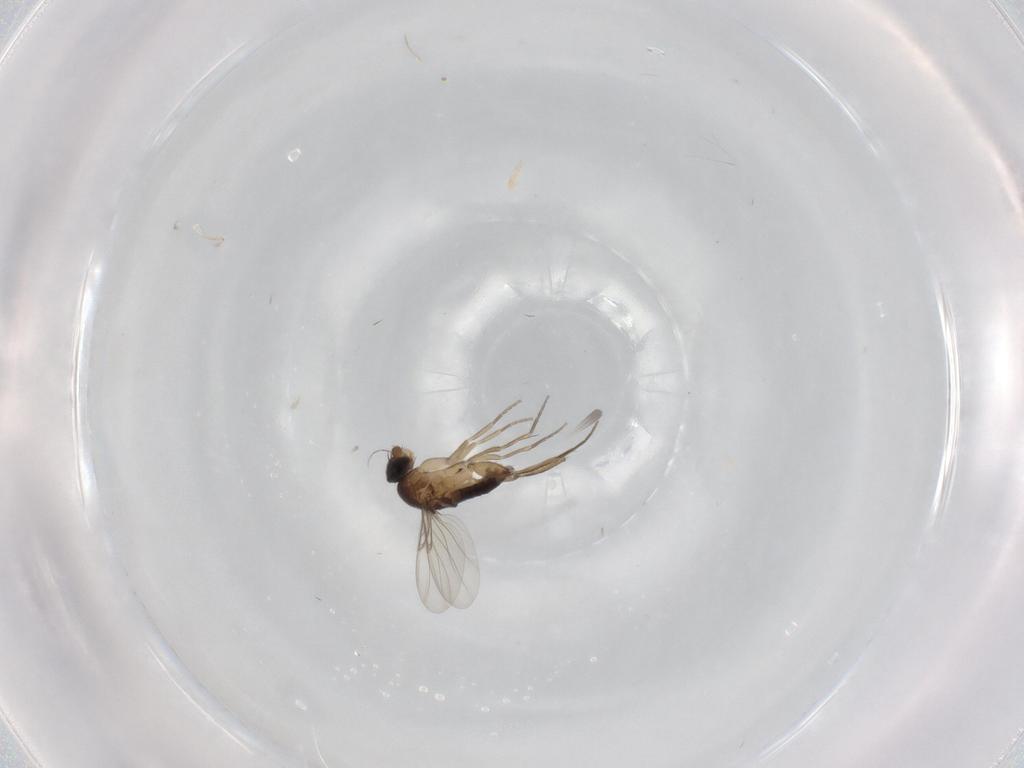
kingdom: Animalia
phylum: Arthropoda
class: Insecta
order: Diptera
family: Phoridae
